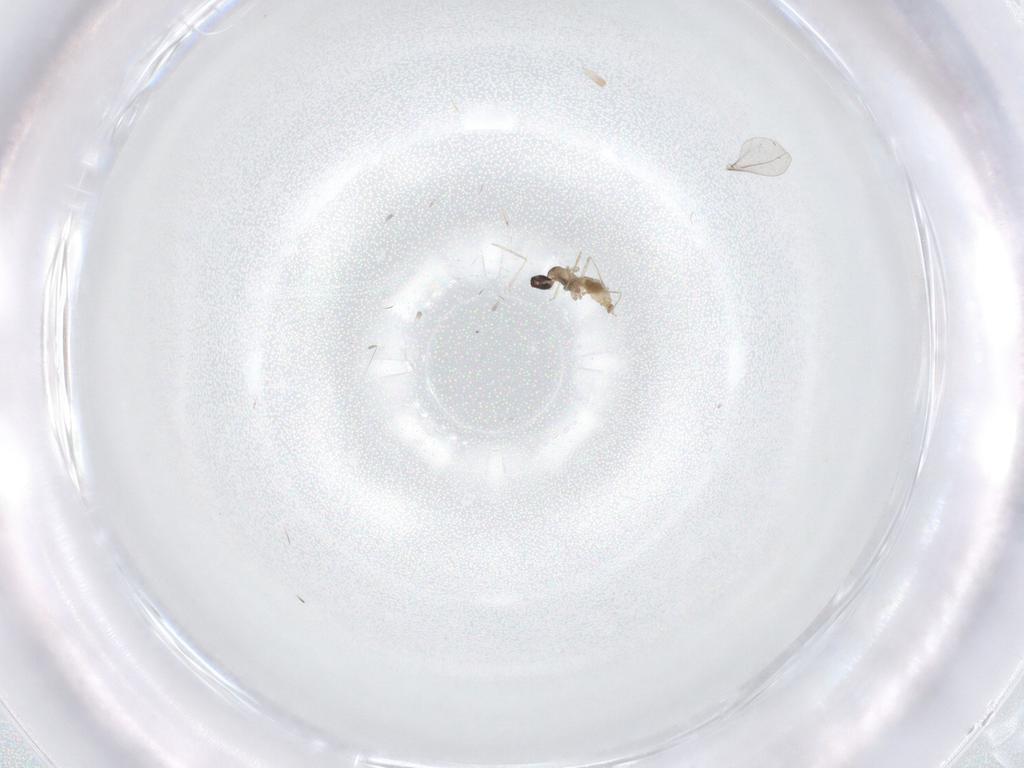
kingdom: Animalia
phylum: Arthropoda
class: Insecta
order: Diptera
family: Cecidomyiidae
